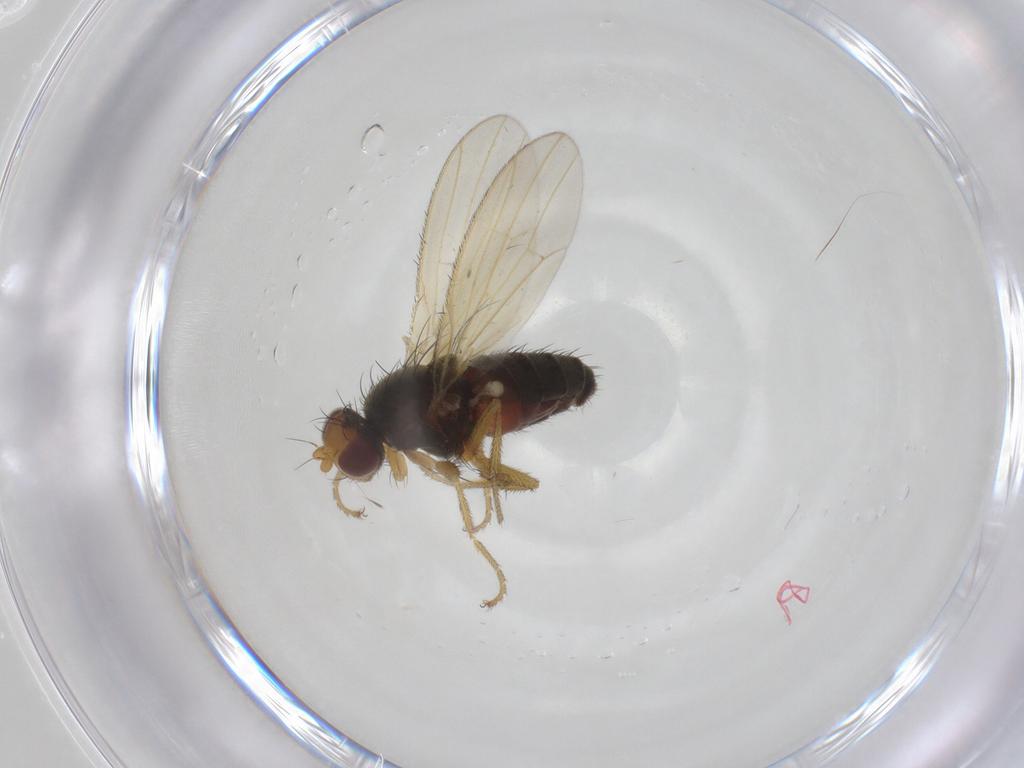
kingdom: Animalia
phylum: Arthropoda
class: Insecta
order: Diptera
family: Heleomyzidae
